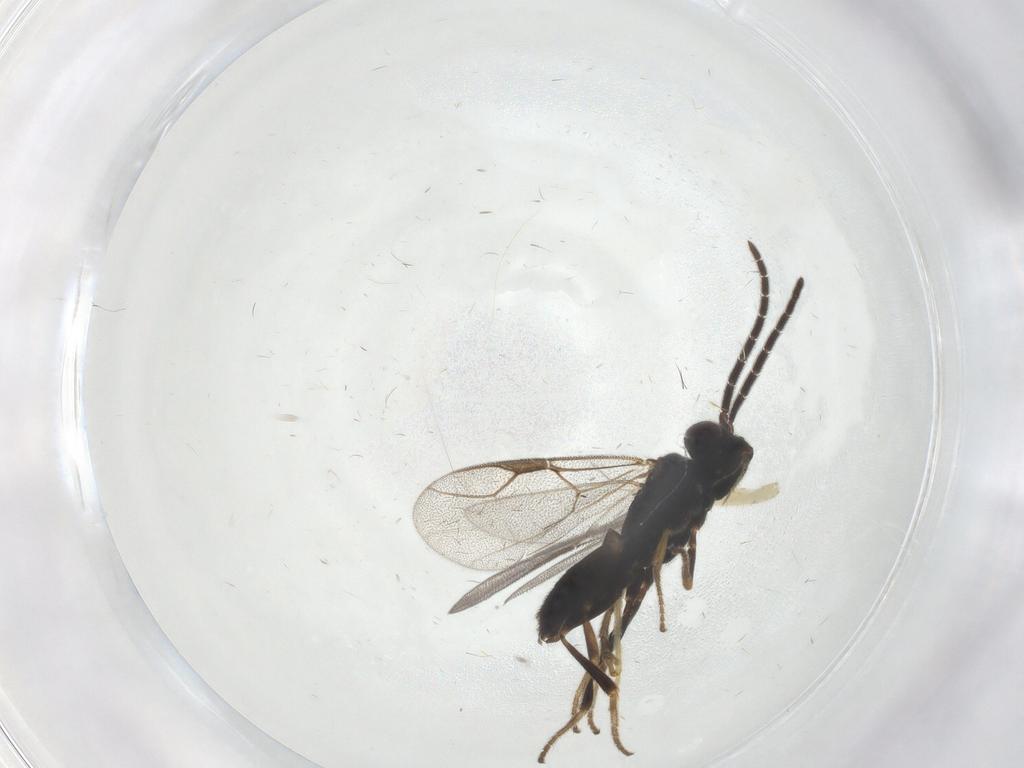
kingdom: Animalia
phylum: Arthropoda
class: Insecta
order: Hymenoptera
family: Dryinidae
